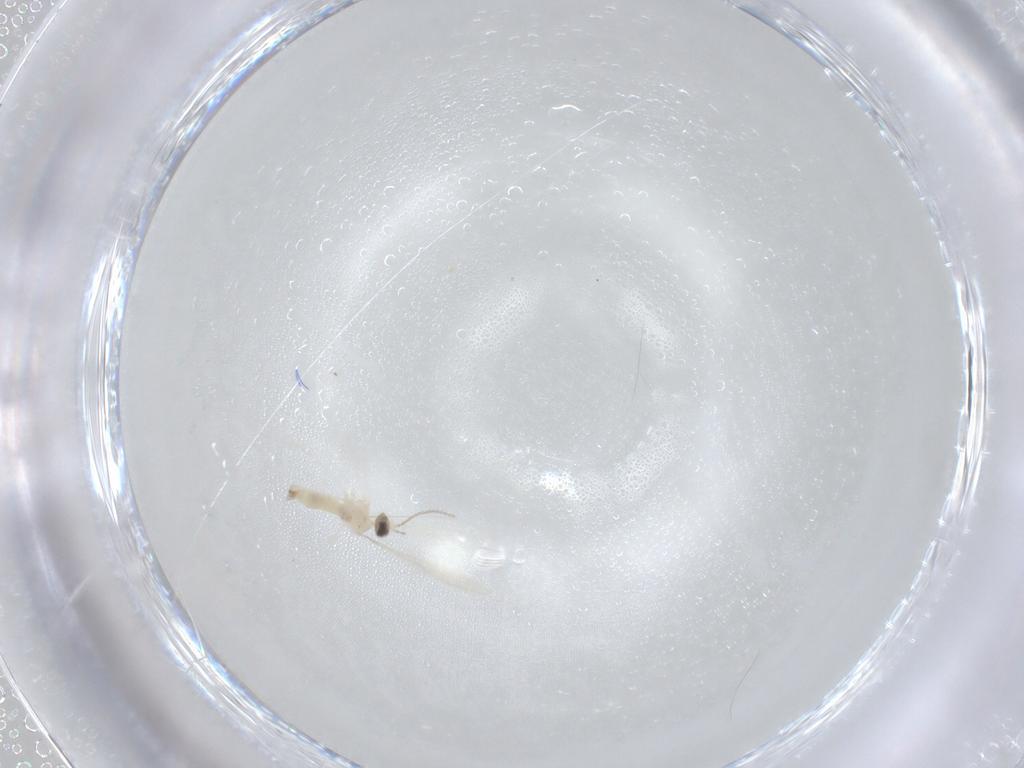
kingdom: Animalia
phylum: Arthropoda
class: Insecta
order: Diptera
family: Cecidomyiidae
